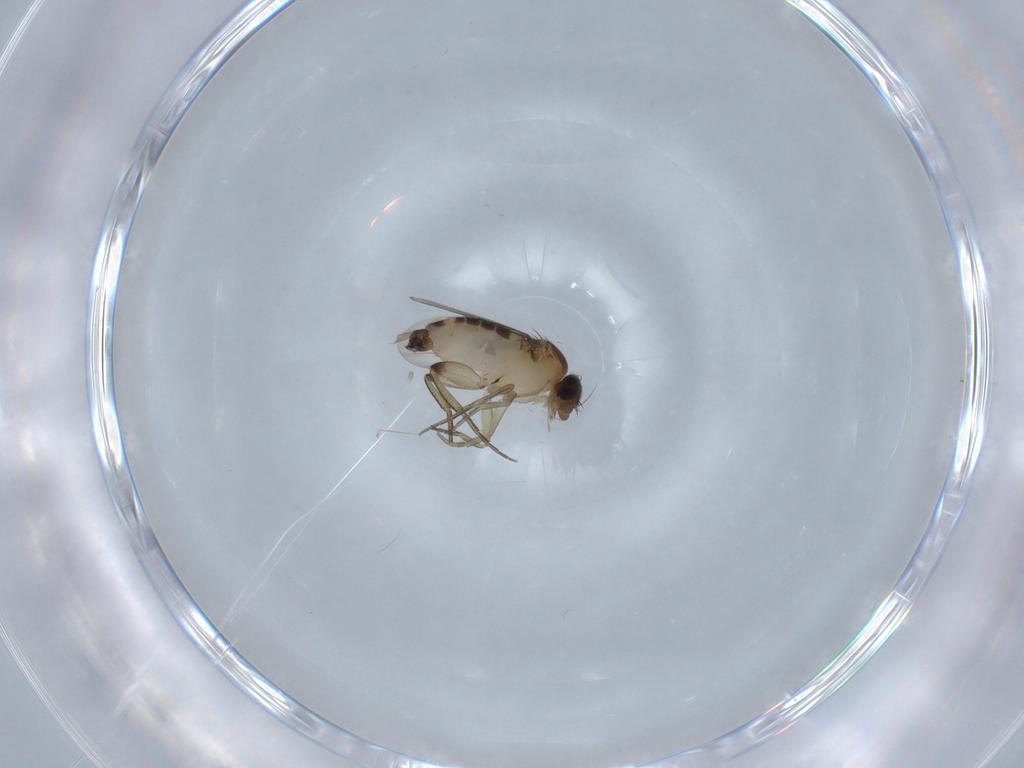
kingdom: Animalia
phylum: Arthropoda
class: Insecta
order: Diptera
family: Phoridae
